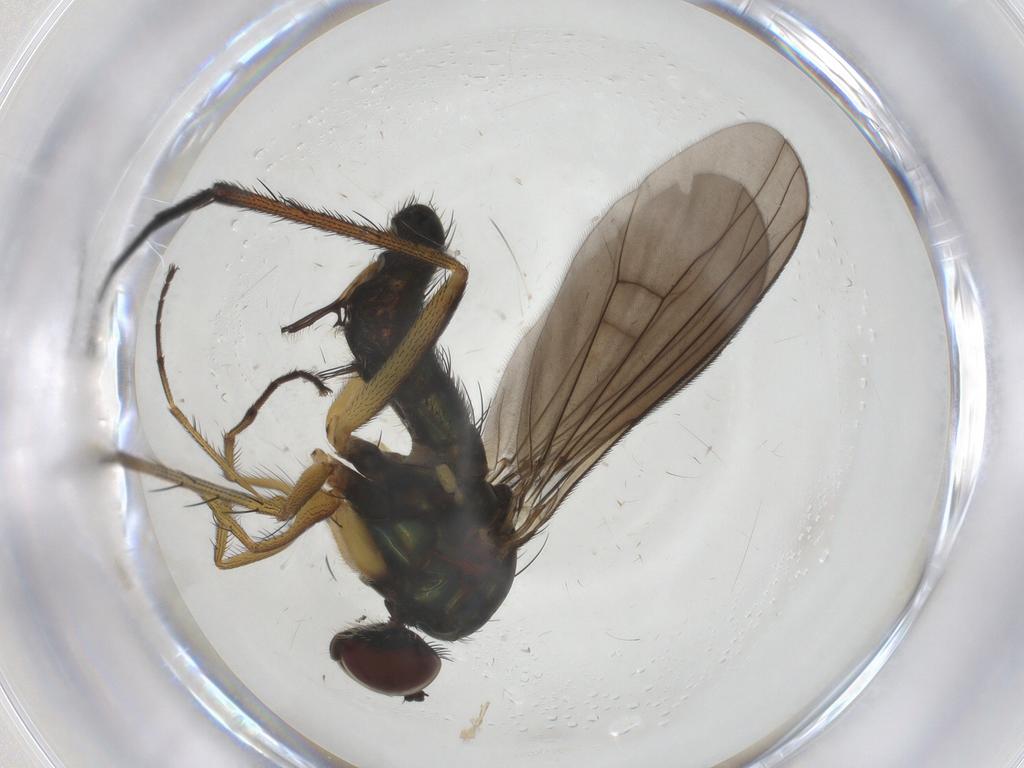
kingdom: Animalia
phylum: Arthropoda
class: Insecta
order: Diptera
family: Dolichopodidae
